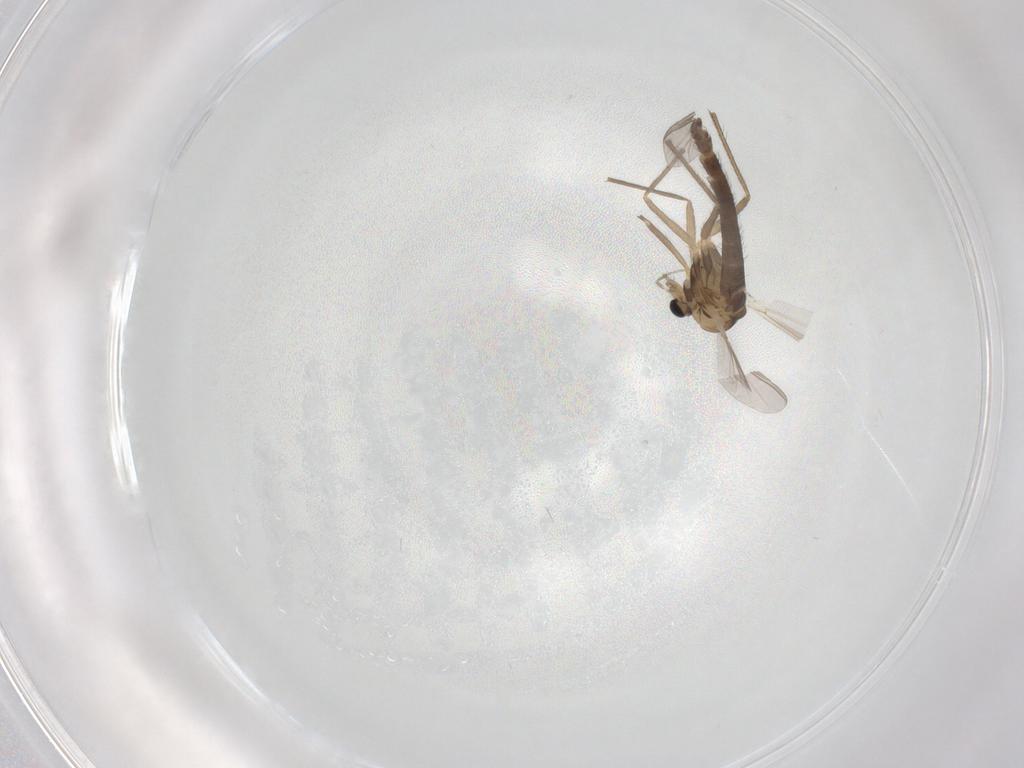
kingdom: Animalia
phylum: Arthropoda
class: Insecta
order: Diptera
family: Chironomidae
